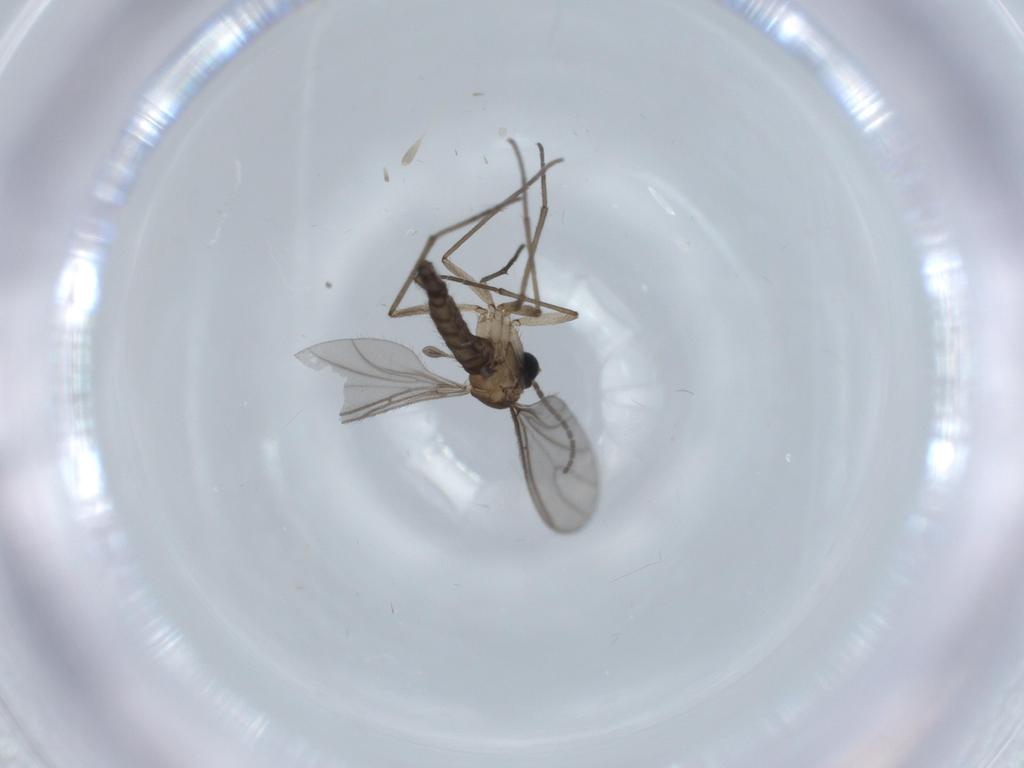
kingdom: Animalia
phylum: Arthropoda
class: Insecta
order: Diptera
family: Sciaridae
